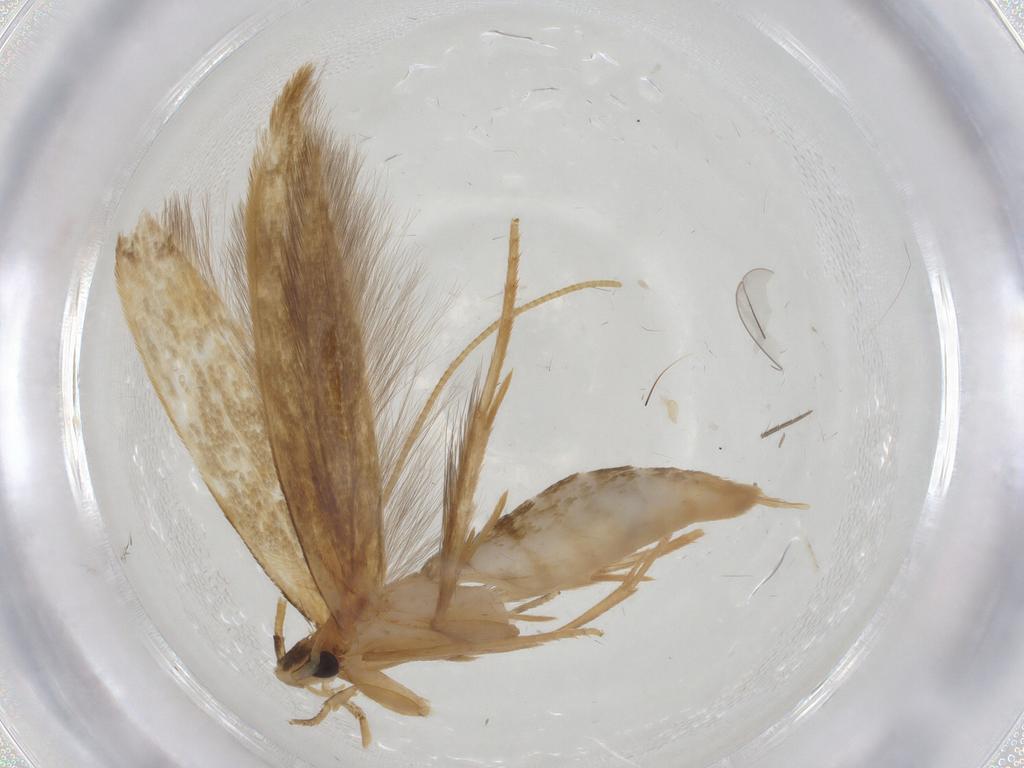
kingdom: Animalia
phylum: Arthropoda
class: Insecta
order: Lepidoptera
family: Cosmopterigidae
